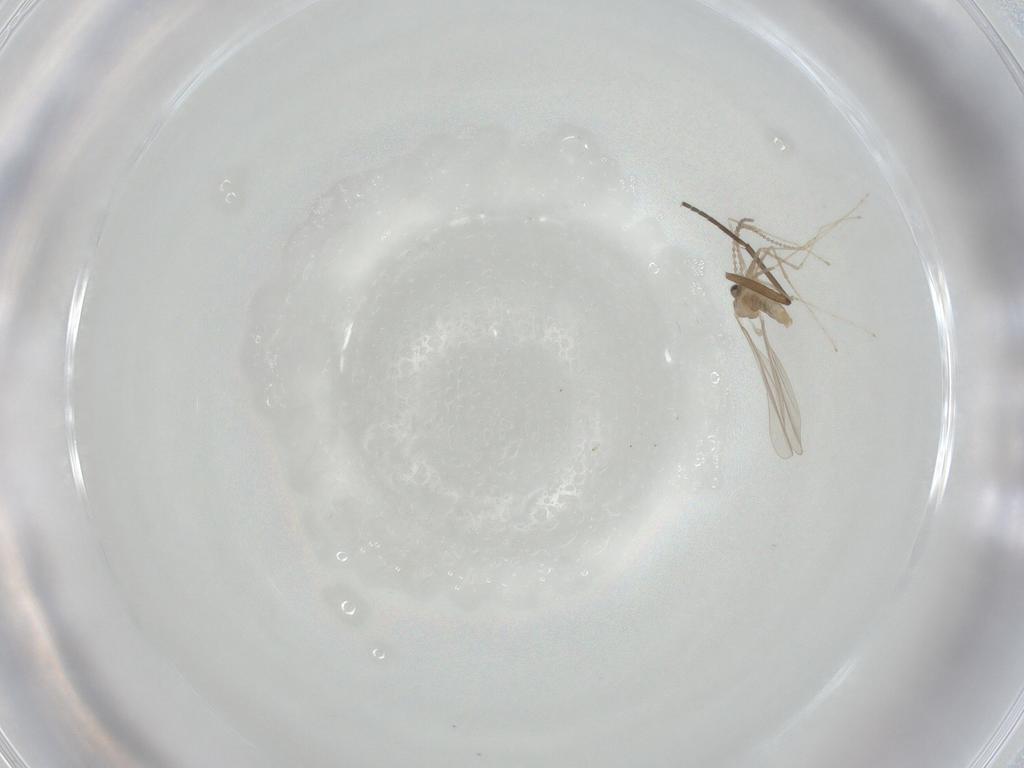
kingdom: Animalia
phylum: Arthropoda
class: Insecta
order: Diptera
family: Sciaridae
